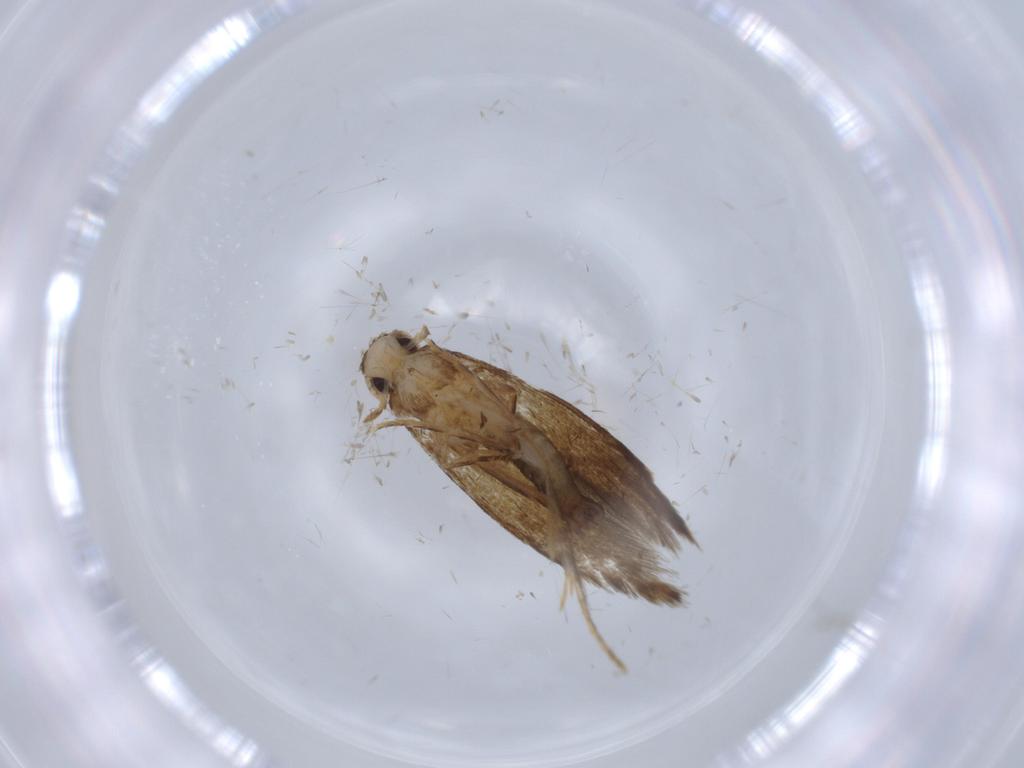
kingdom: Animalia
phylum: Arthropoda
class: Insecta
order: Lepidoptera
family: Tineidae
